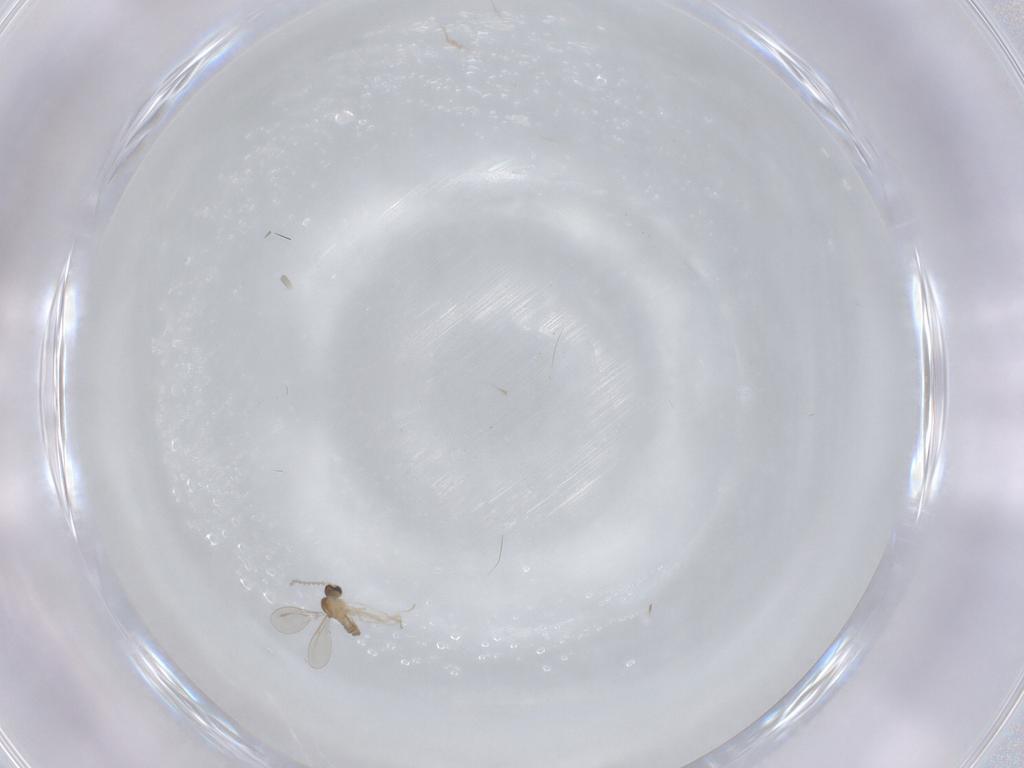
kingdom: Animalia
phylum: Arthropoda
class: Insecta
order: Diptera
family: Cecidomyiidae
